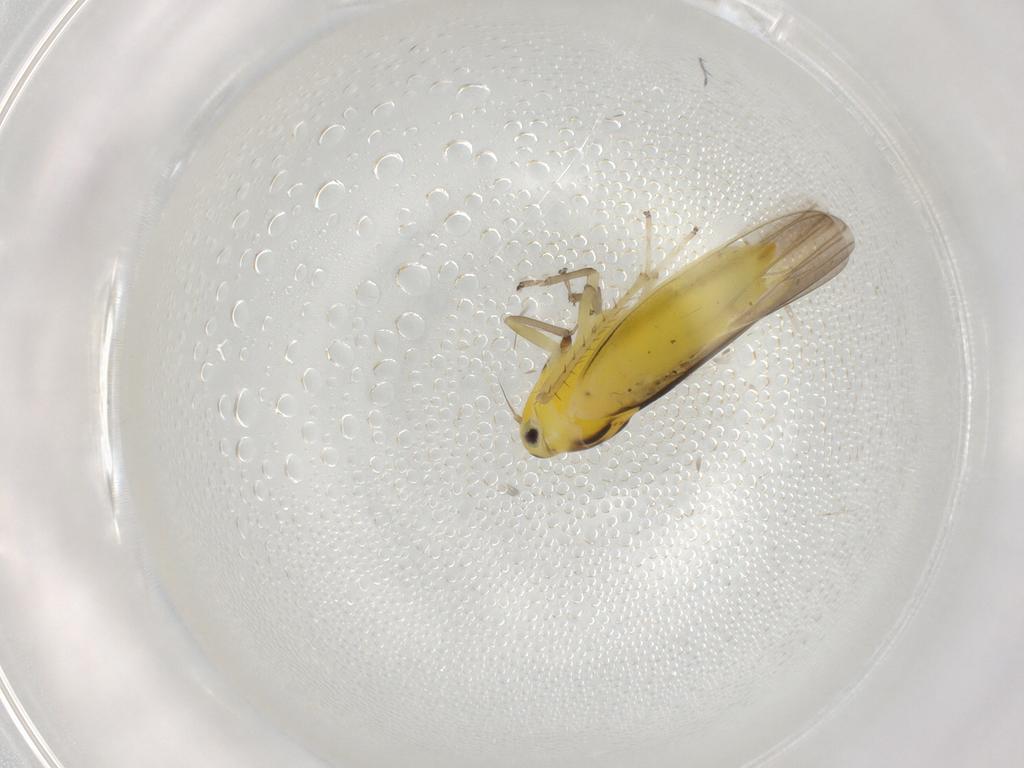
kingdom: Animalia
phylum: Arthropoda
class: Insecta
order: Hemiptera
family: Cicadellidae
